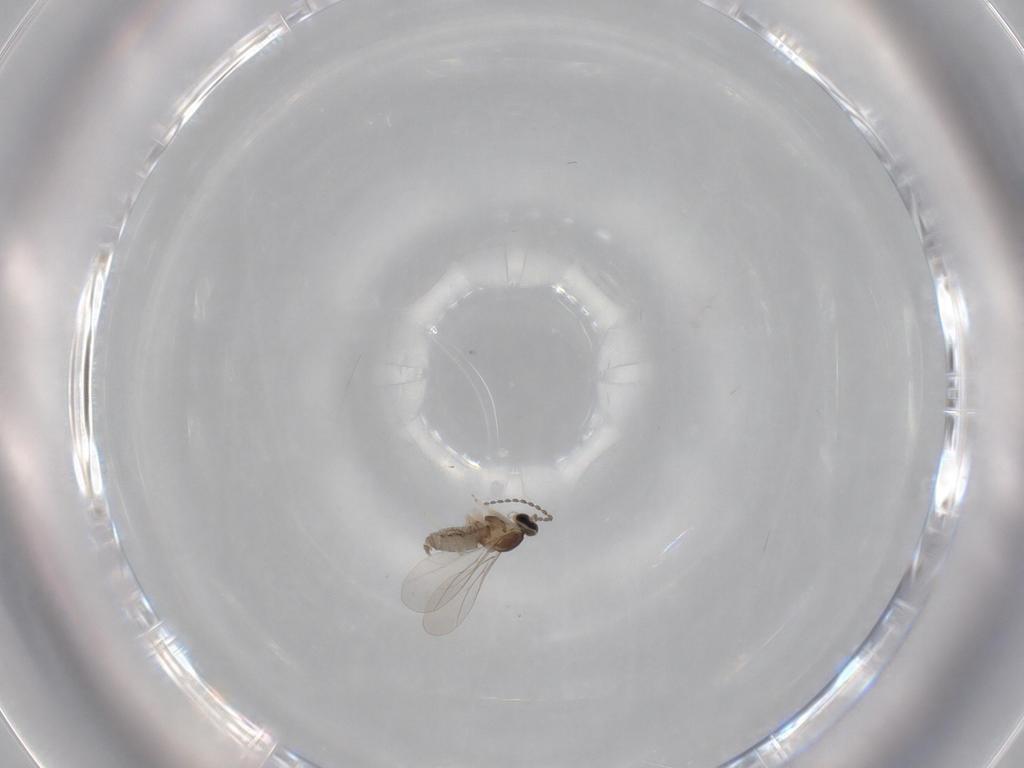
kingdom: Animalia
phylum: Arthropoda
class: Insecta
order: Diptera
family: Cecidomyiidae
